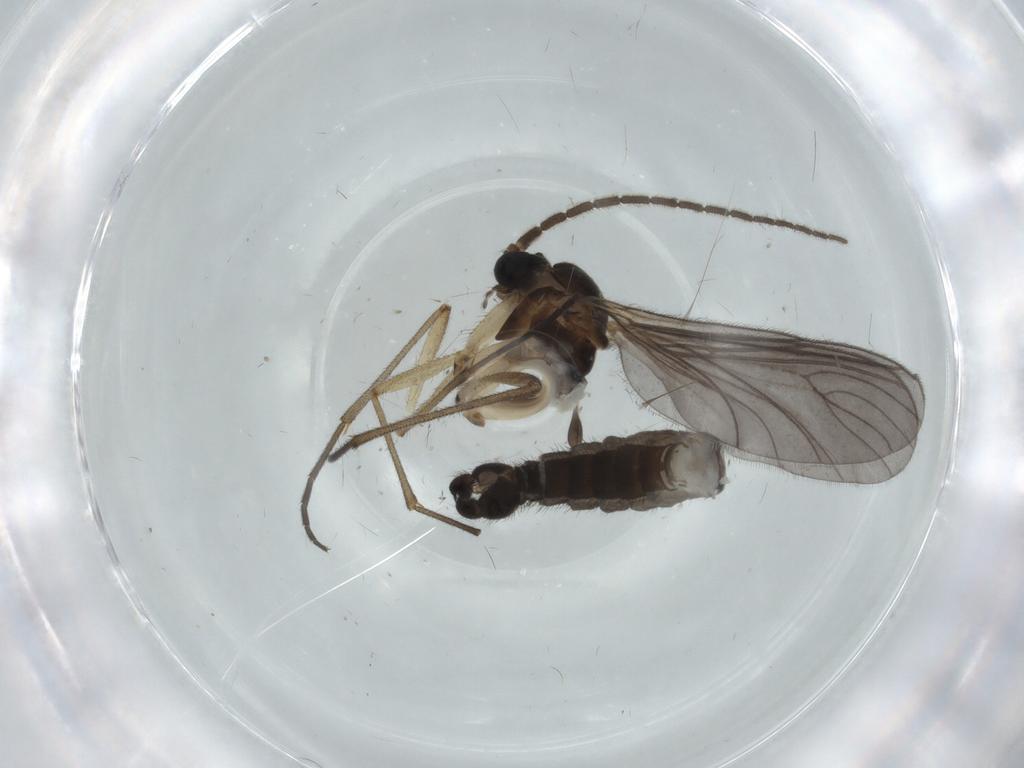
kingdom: Animalia
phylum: Arthropoda
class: Insecta
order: Diptera
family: Sciaridae
